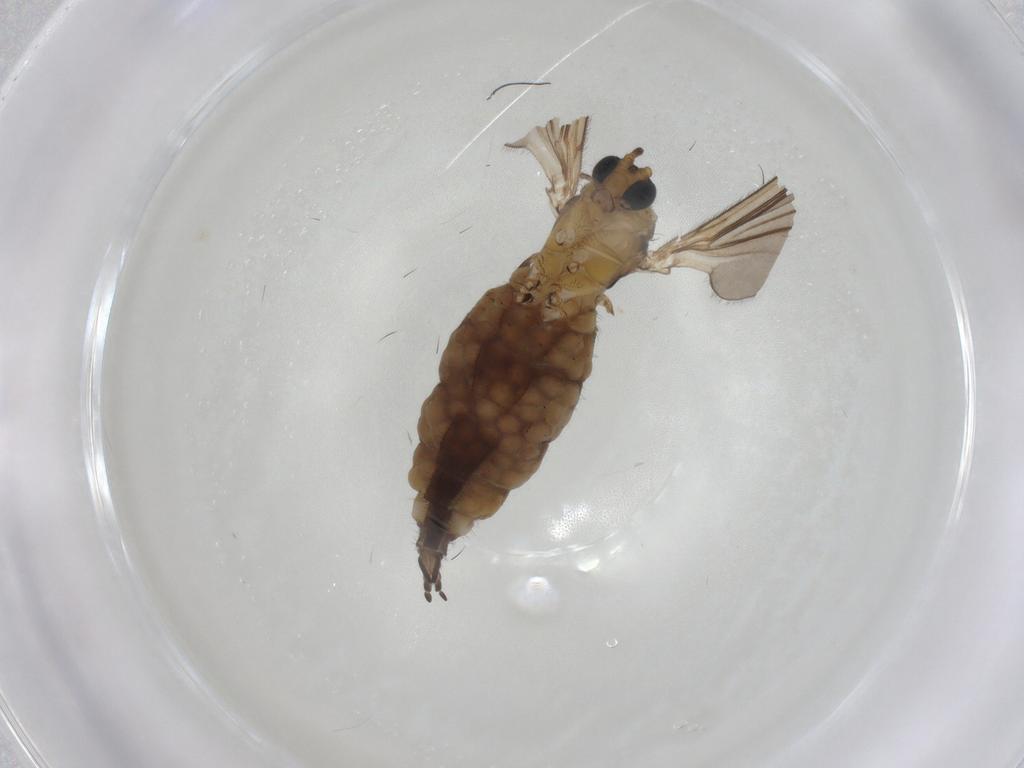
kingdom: Animalia
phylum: Arthropoda
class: Insecta
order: Diptera
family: Sciaridae
